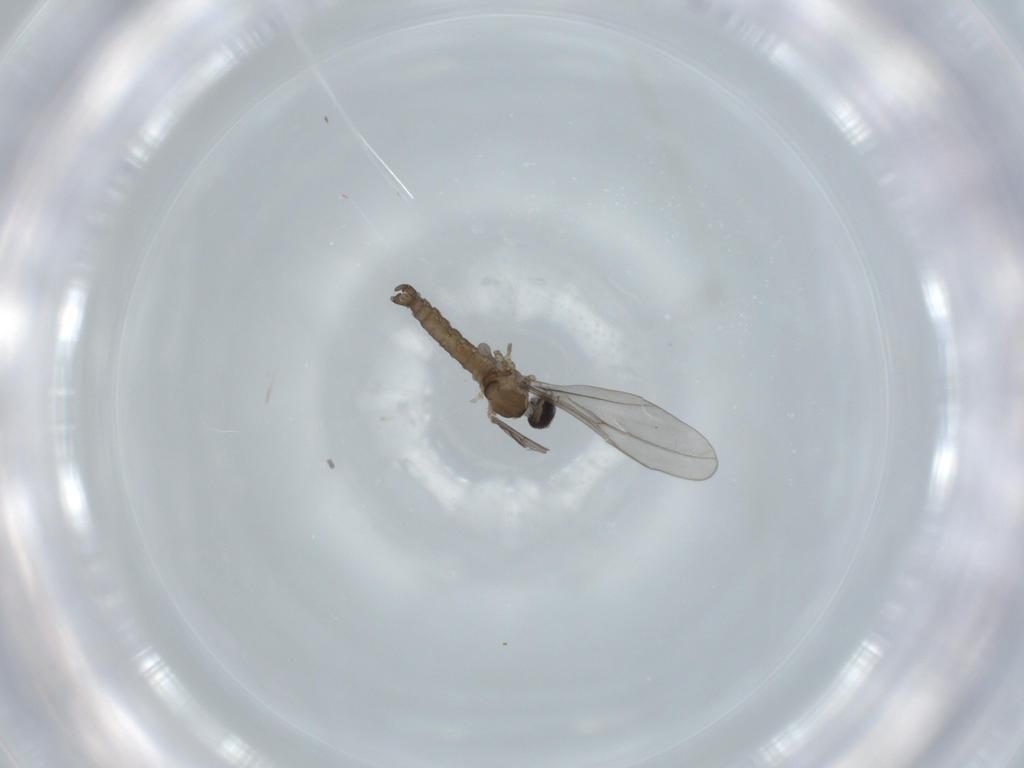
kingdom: Animalia
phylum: Arthropoda
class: Insecta
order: Diptera
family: Cecidomyiidae
